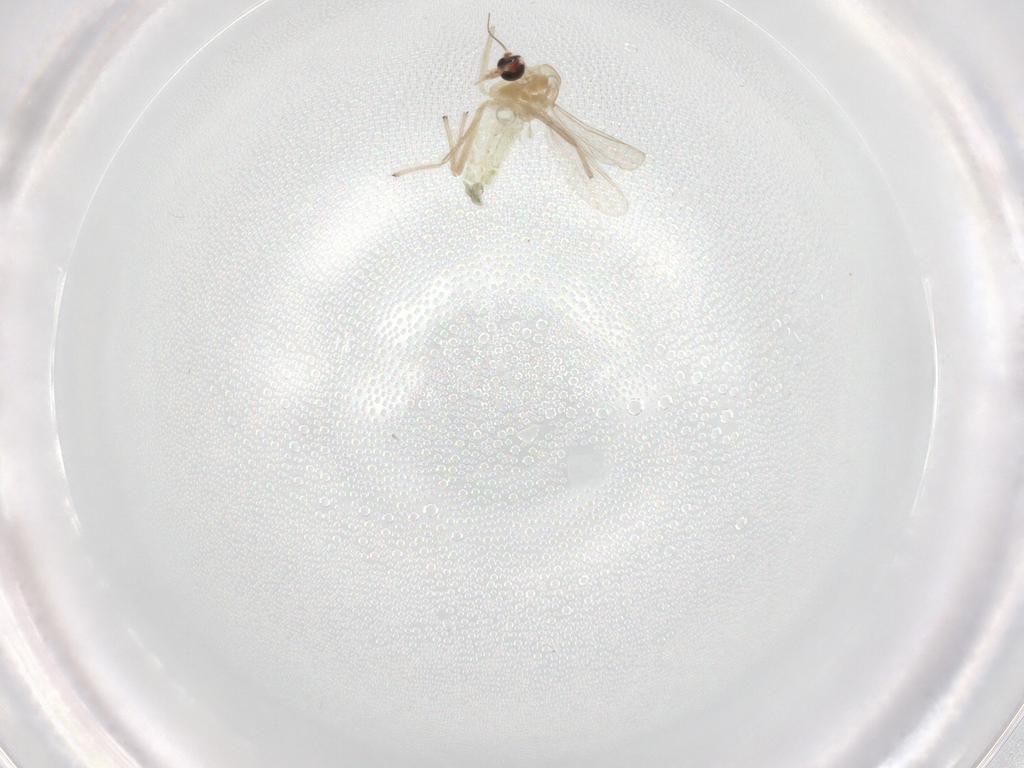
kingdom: Animalia
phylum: Arthropoda
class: Insecta
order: Diptera
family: Chironomidae
